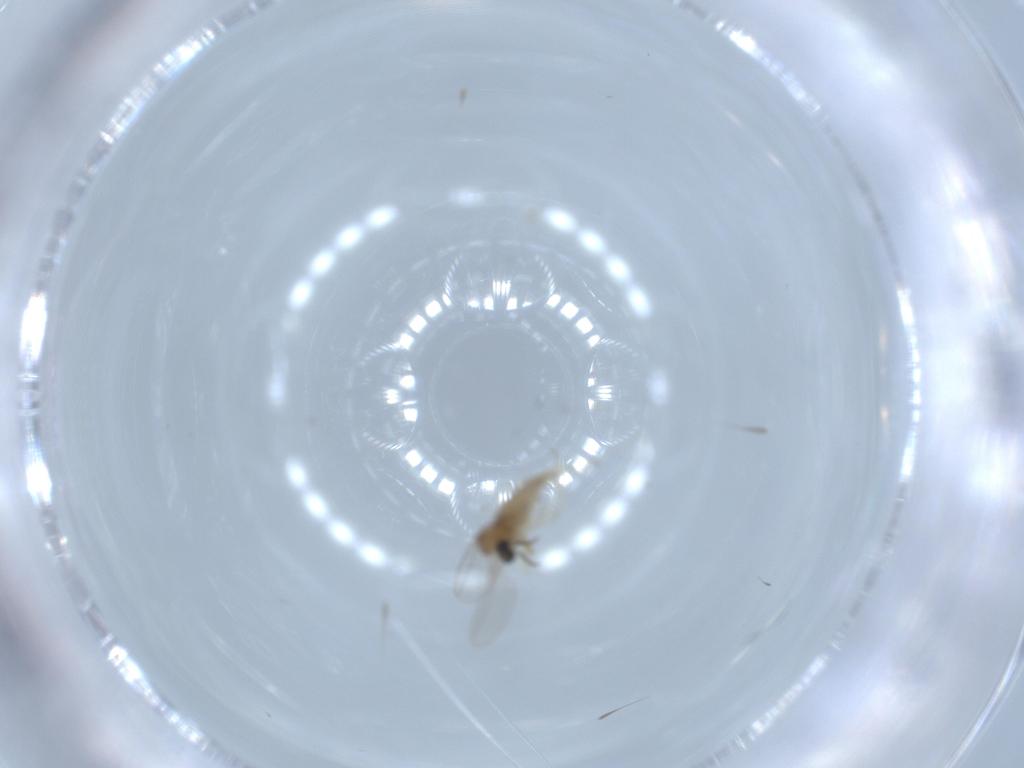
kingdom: Animalia
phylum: Arthropoda
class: Insecta
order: Diptera
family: Cecidomyiidae
